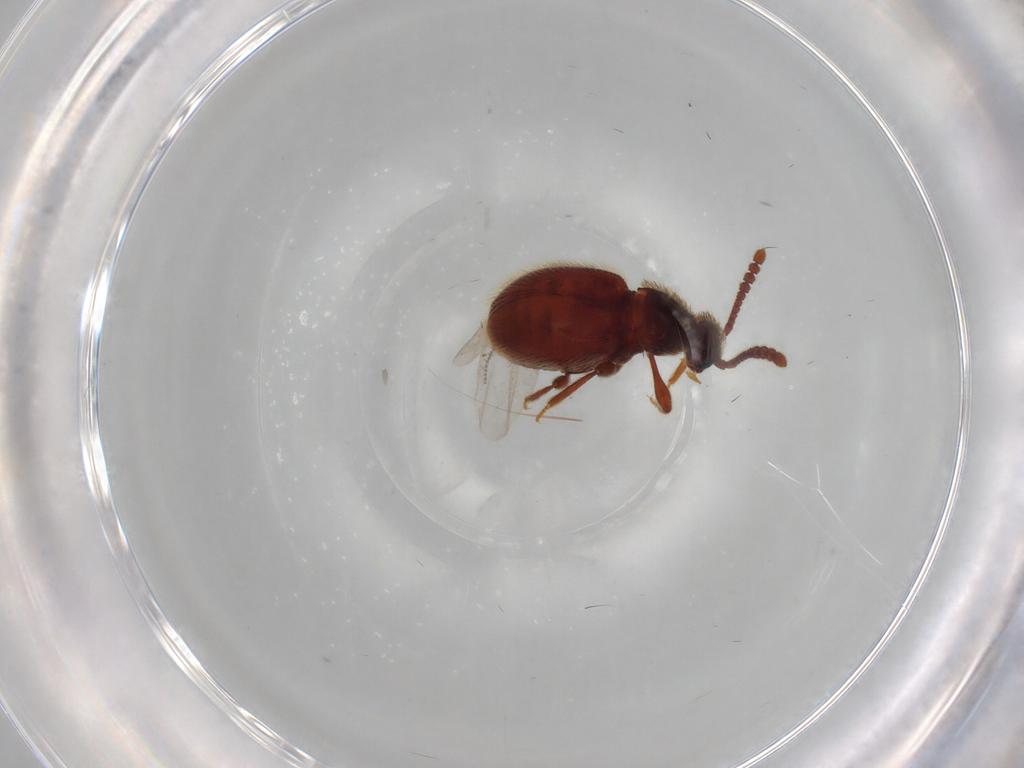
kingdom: Animalia
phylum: Arthropoda
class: Insecta
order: Coleoptera
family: Staphylinidae
